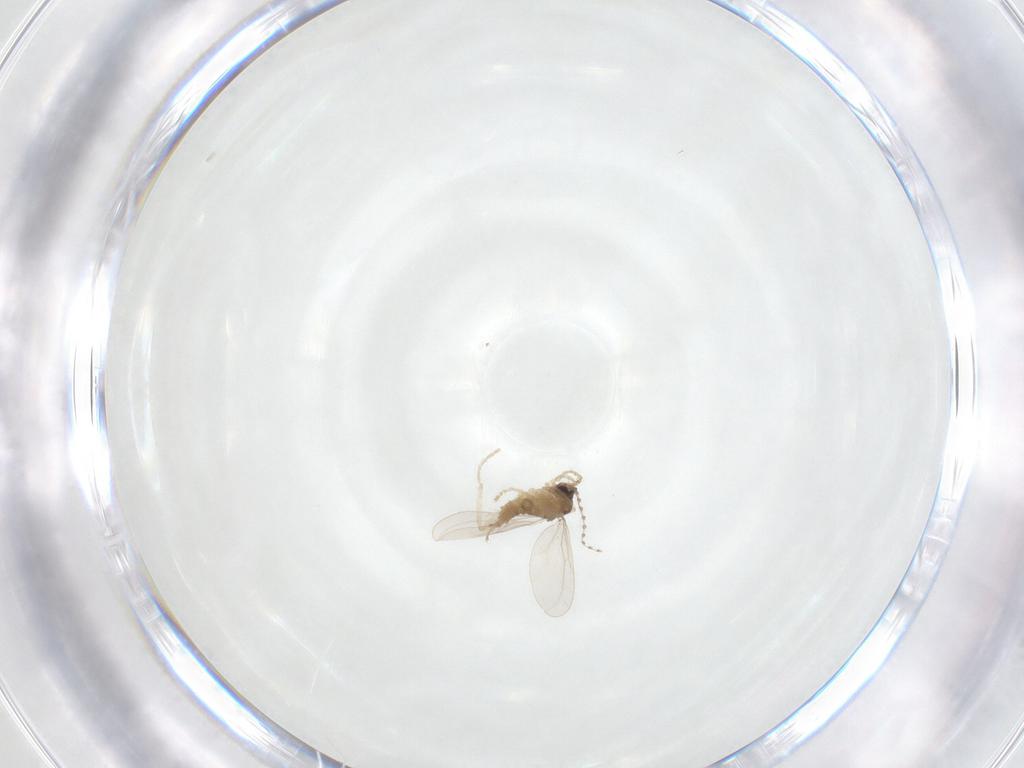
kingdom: Animalia
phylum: Arthropoda
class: Insecta
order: Diptera
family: Cecidomyiidae
